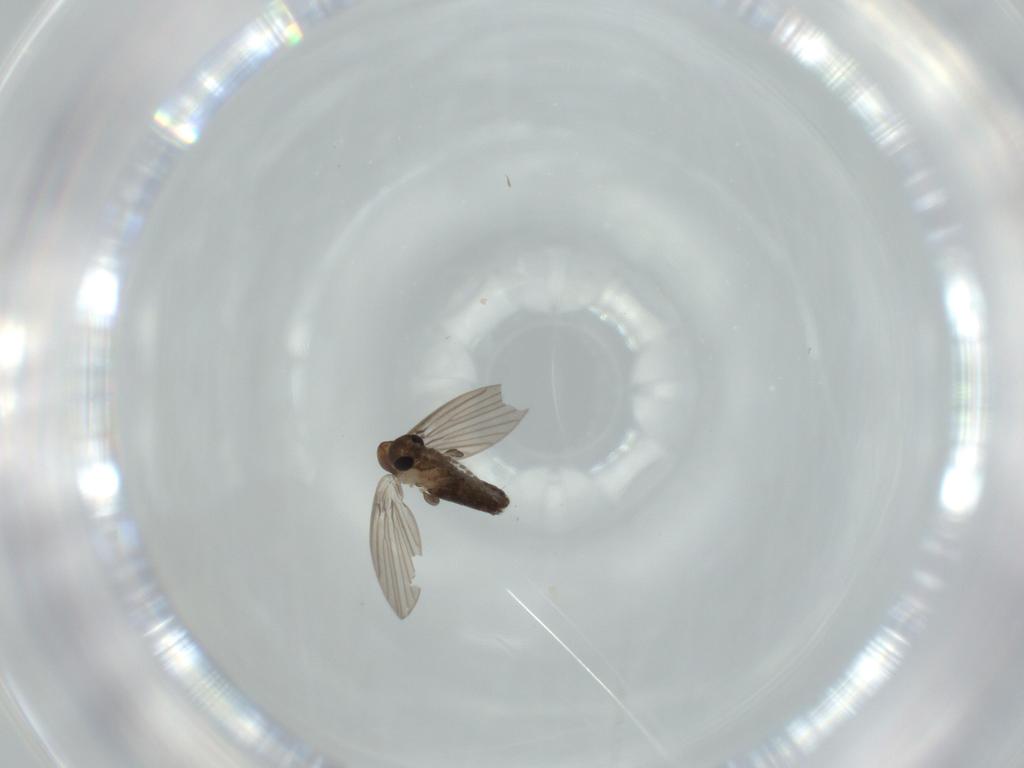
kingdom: Animalia
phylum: Arthropoda
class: Insecta
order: Diptera
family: Psychodidae
